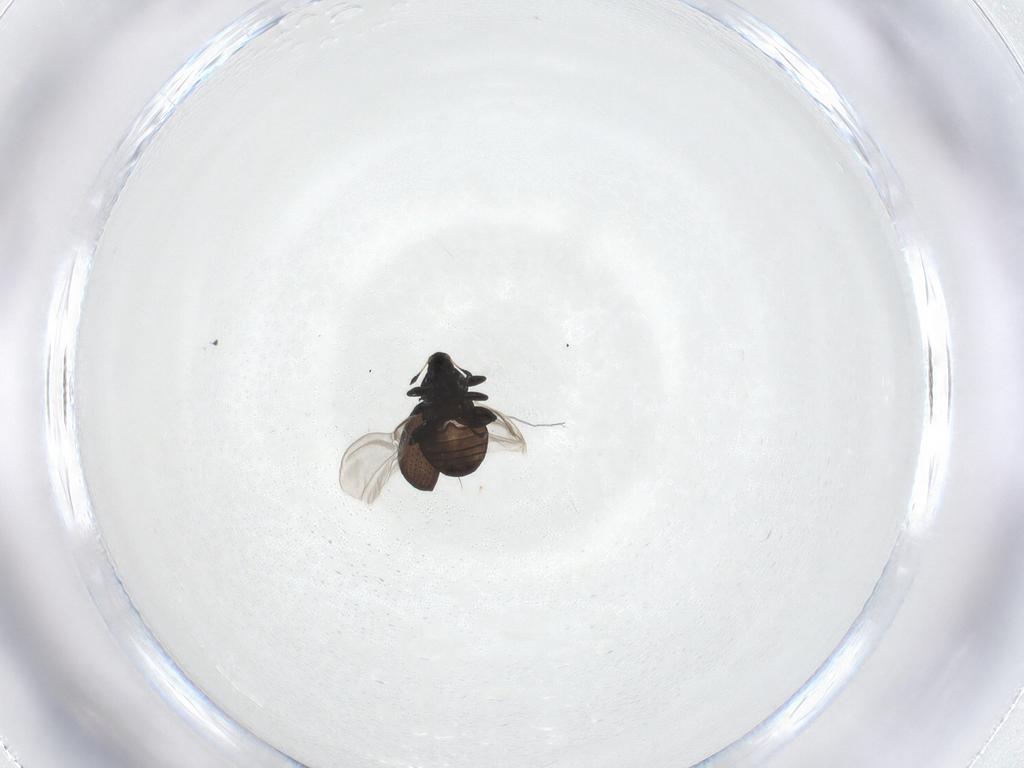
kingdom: Animalia
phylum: Arthropoda
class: Insecta
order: Coleoptera
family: Curculionidae
